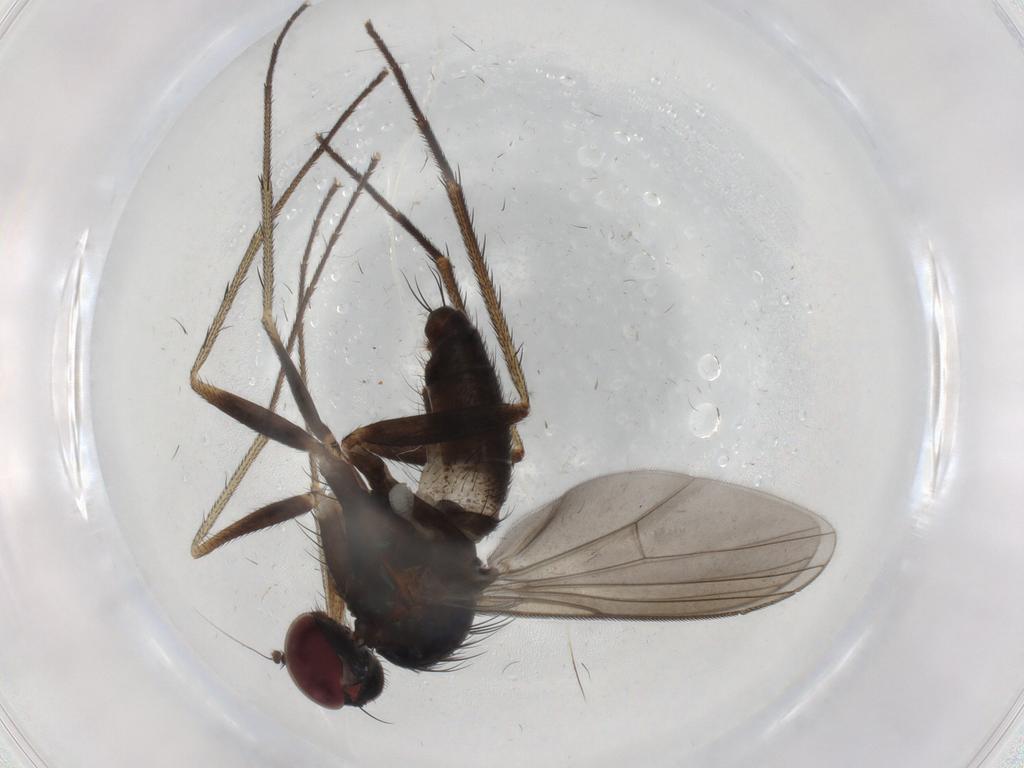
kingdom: Animalia
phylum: Arthropoda
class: Insecta
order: Diptera
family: Dolichopodidae
